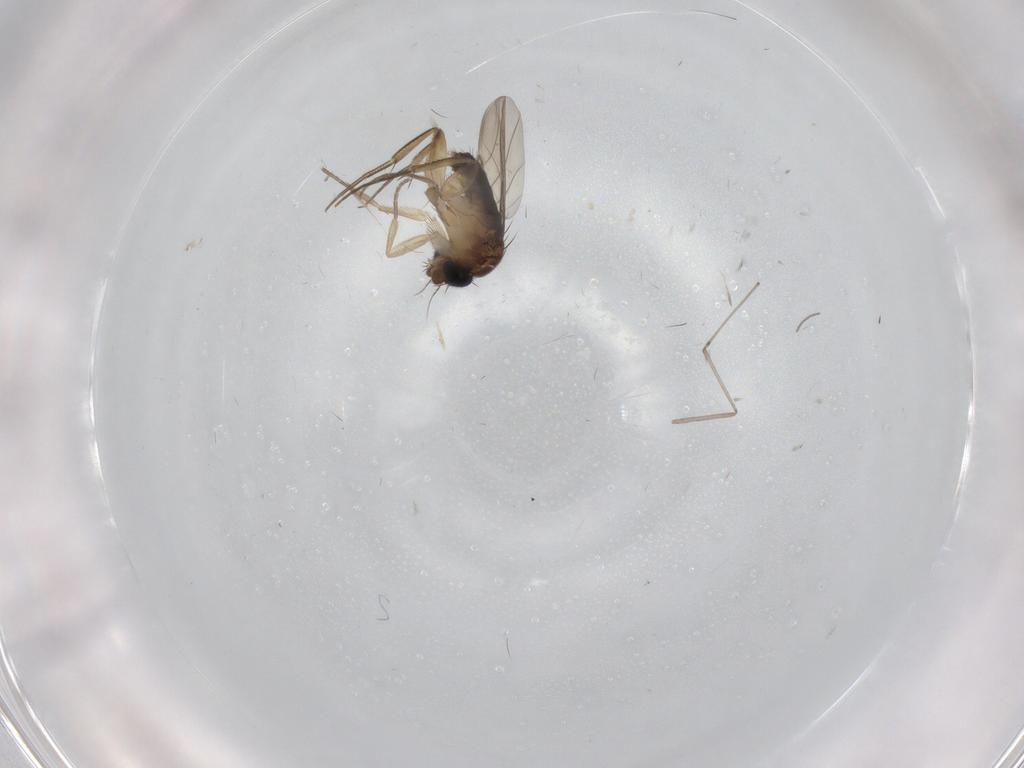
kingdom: Animalia
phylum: Arthropoda
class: Insecta
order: Diptera
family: Phoridae
